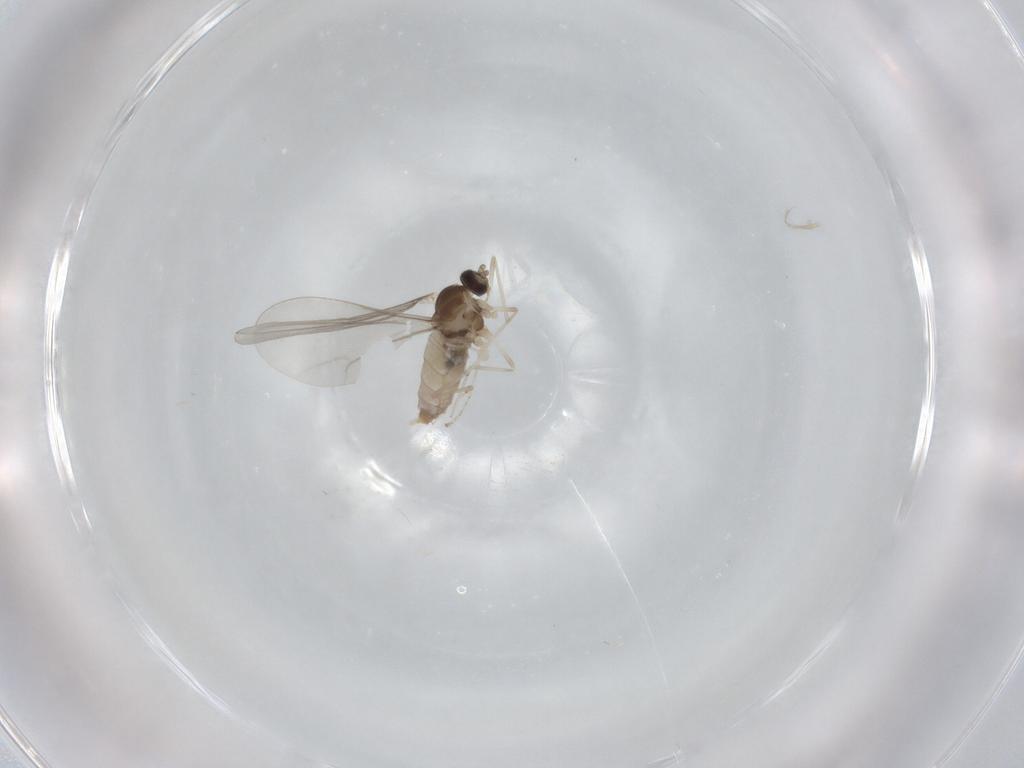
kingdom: Animalia
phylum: Arthropoda
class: Insecta
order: Diptera
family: Cecidomyiidae
